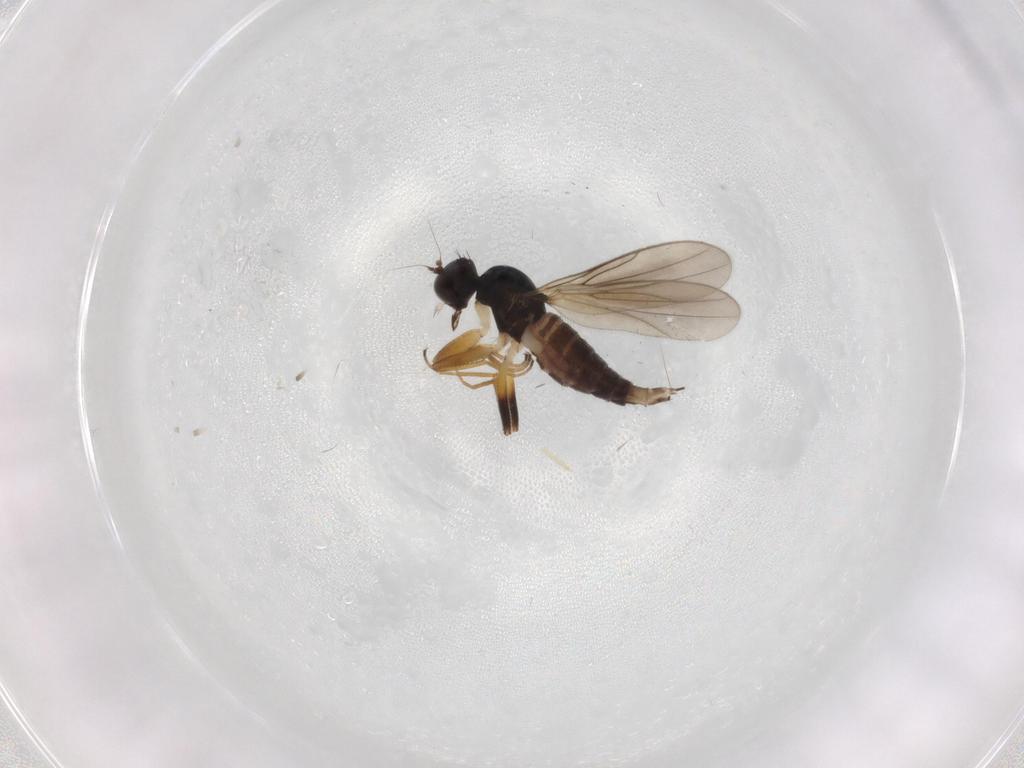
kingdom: Animalia
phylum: Arthropoda
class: Insecta
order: Diptera
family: Hybotidae
